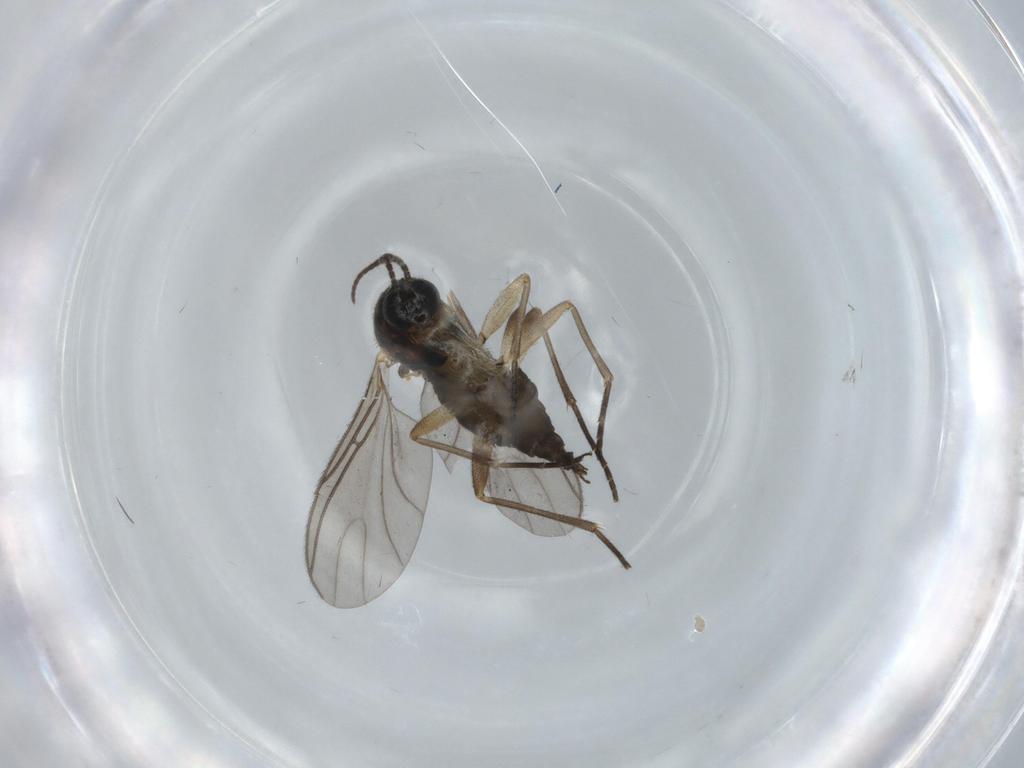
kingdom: Animalia
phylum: Arthropoda
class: Insecta
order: Diptera
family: Sciaridae
